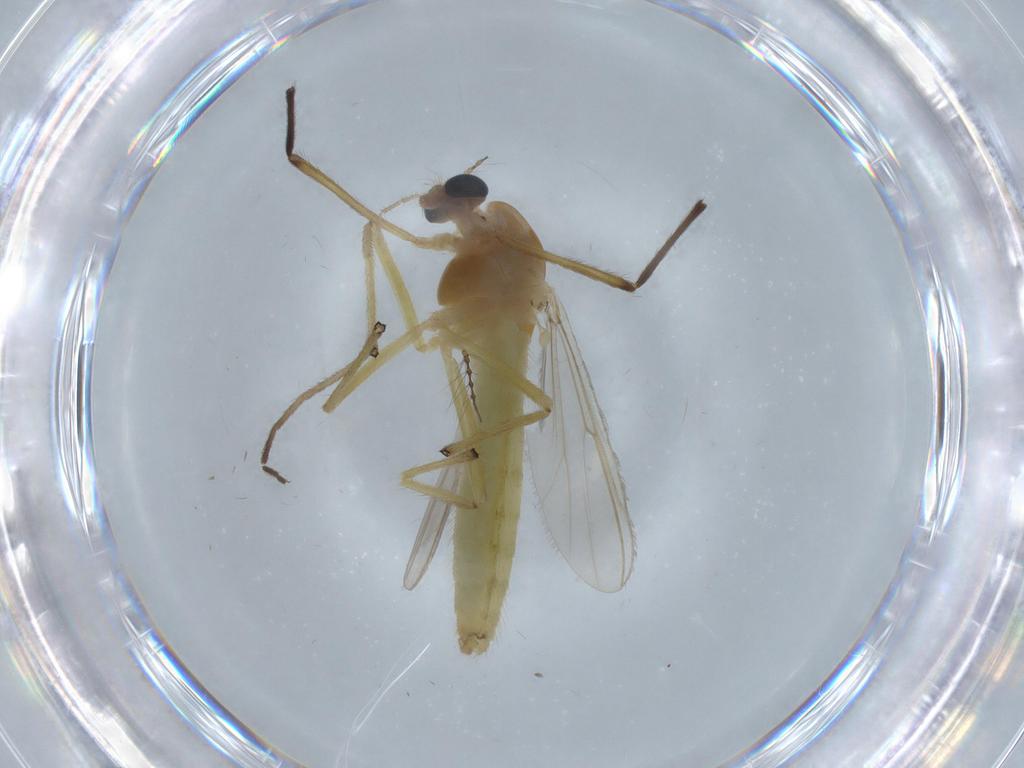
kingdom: Animalia
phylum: Arthropoda
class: Insecta
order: Diptera
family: Chironomidae
